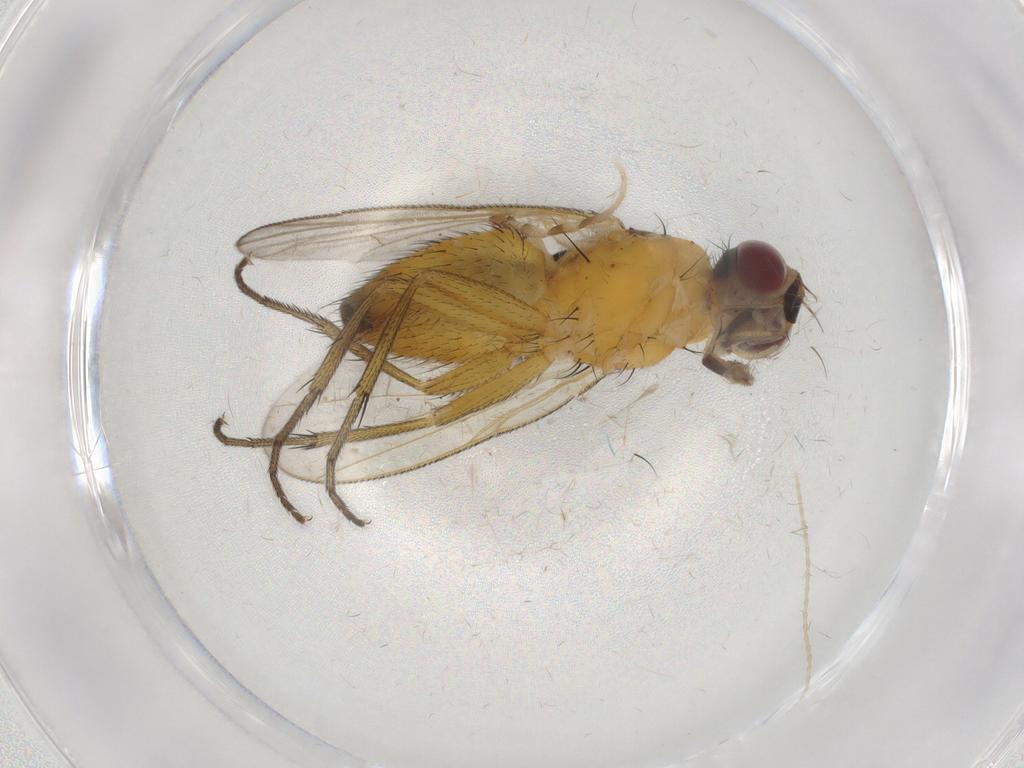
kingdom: Animalia
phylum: Arthropoda
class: Insecta
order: Diptera
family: Muscidae
